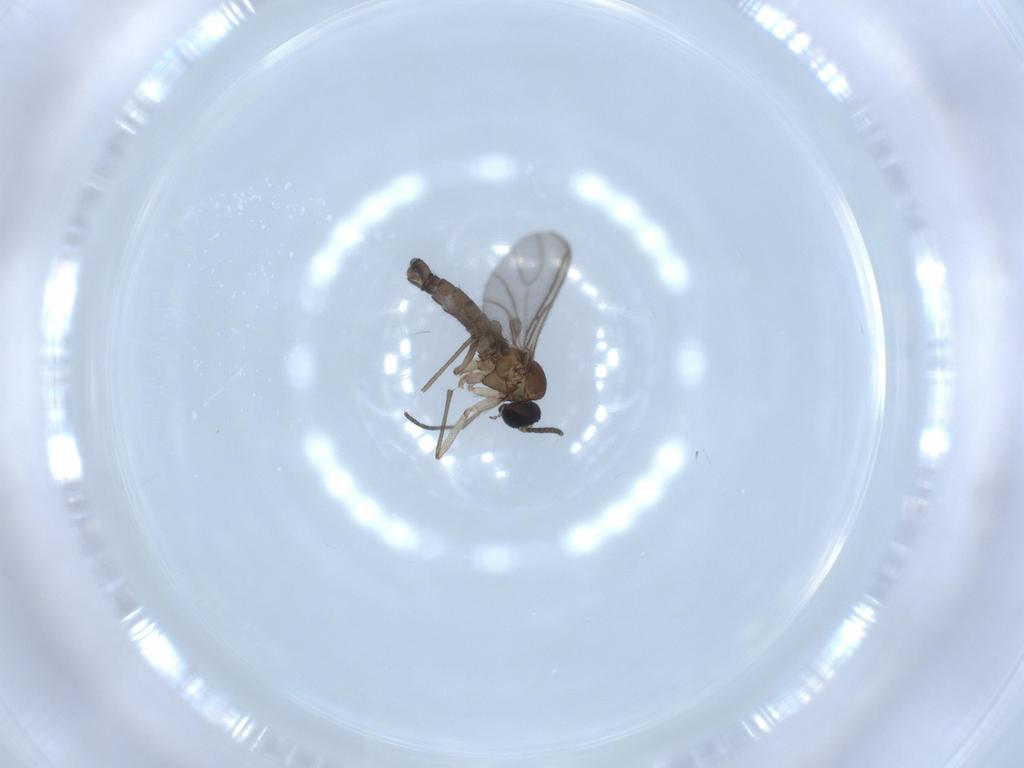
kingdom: Animalia
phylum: Arthropoda
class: Insecta
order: Diptera
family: Sciaridae
